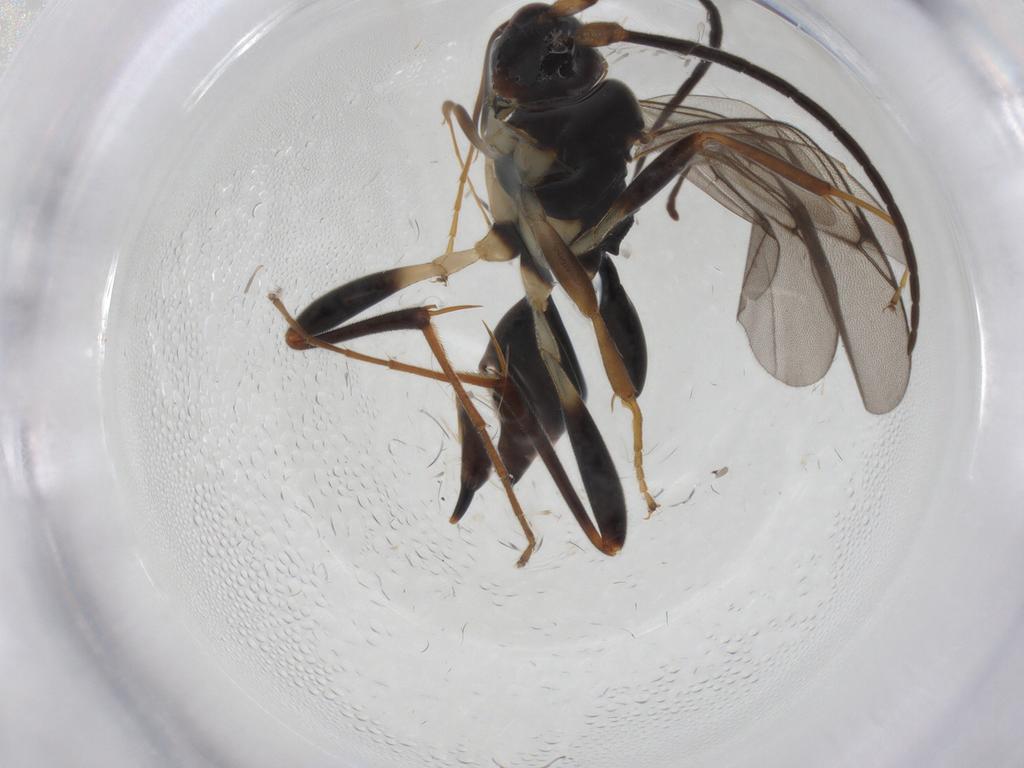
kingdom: Animalia
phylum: Arthropoda
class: Insecta
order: Hymenoptera
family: Proctotrupidae
